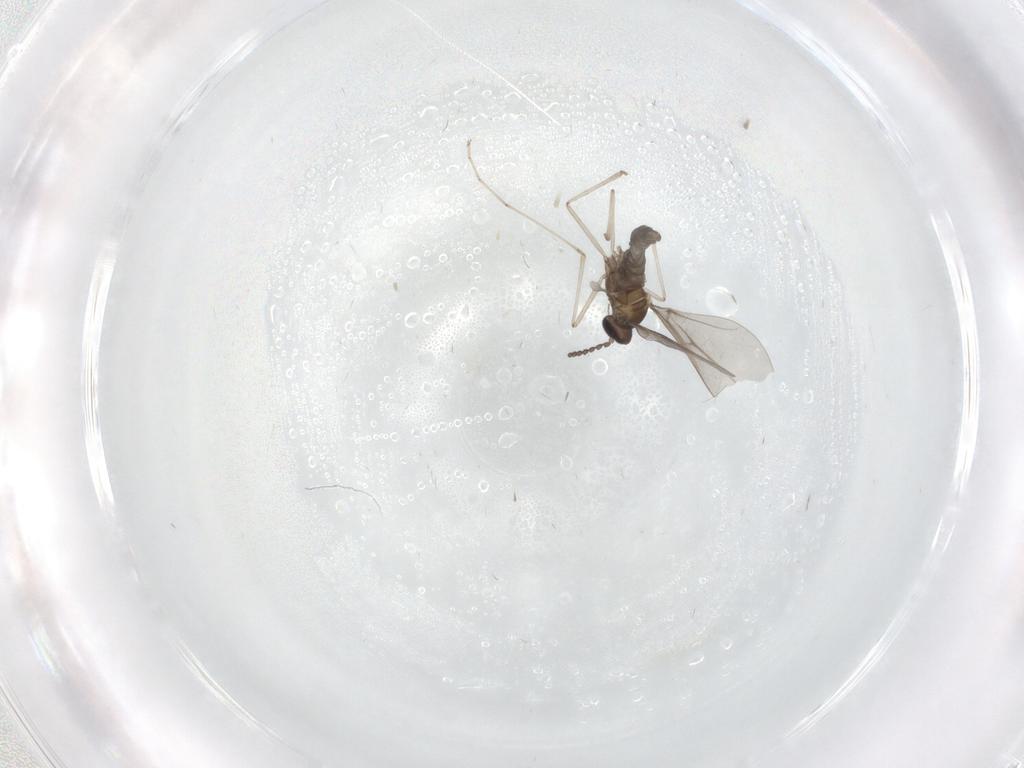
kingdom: Animalia
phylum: Arthropoda
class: Insecta
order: Diptera
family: Cecidomyiidae
